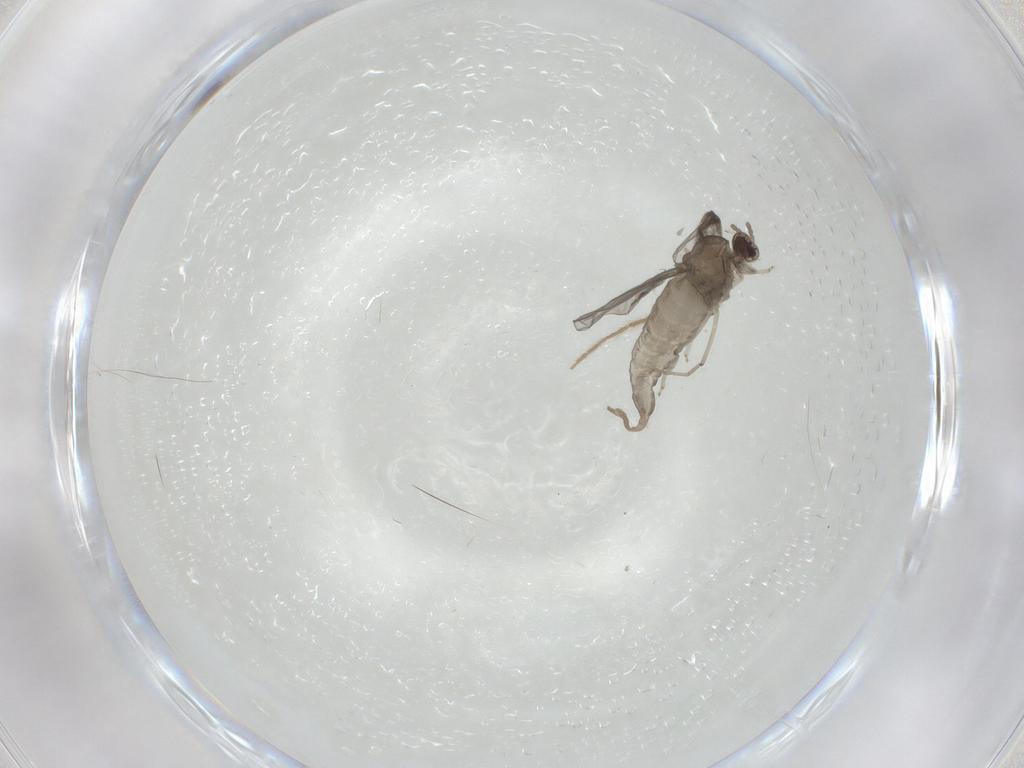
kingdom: Animalia
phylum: Arthropoda
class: Insecta
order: Diptera
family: Cecidomyiidae
